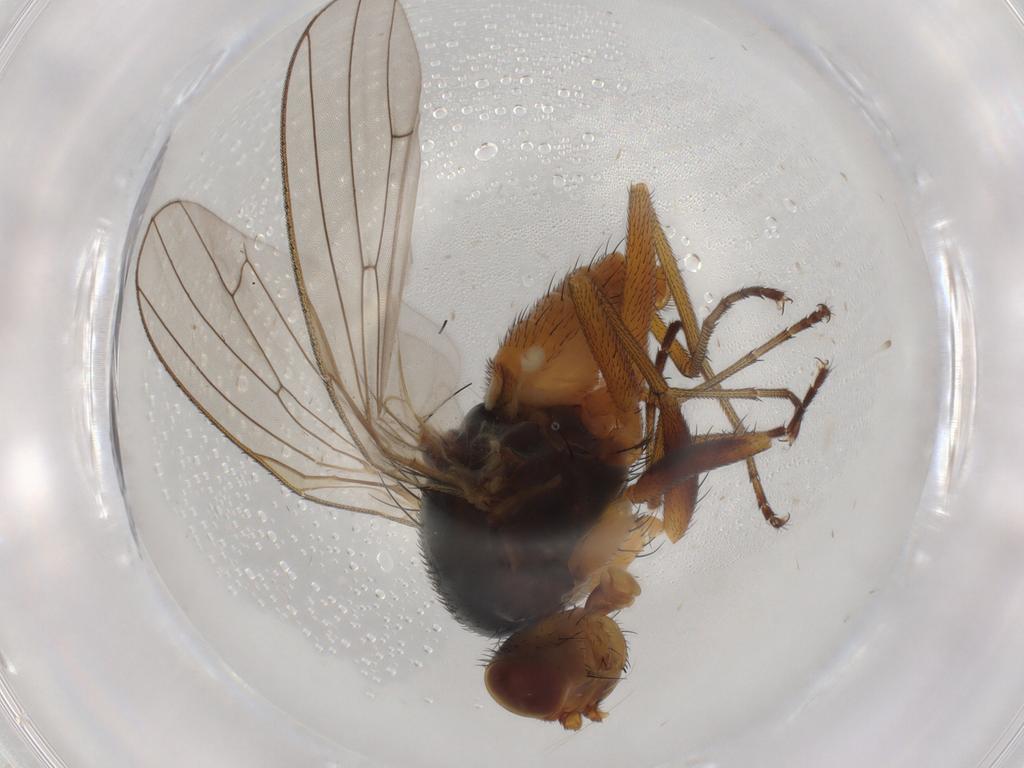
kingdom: Animalia
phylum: Arthropoda
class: Insecta
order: Diptera
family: Heleomyzidae
